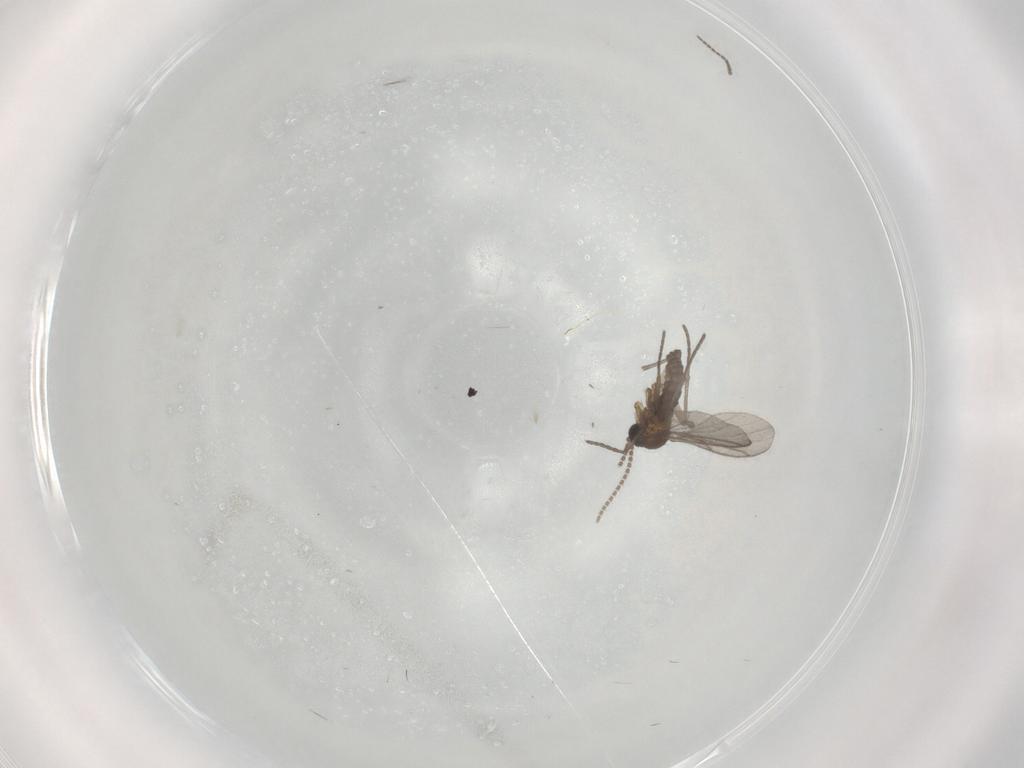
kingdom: Animalia
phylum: Arthropoda
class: Insecta
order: Diptera
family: Sciaridae
